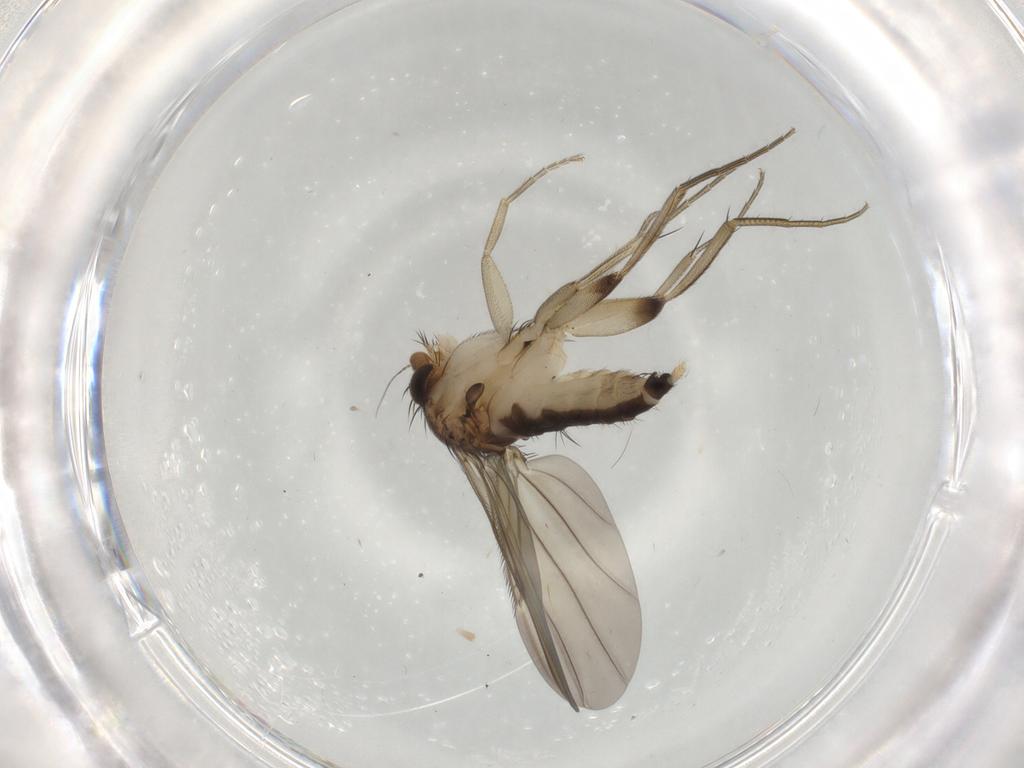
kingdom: Animalia
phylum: Arthropoda
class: Insecta
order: Diptera
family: Phoridae
